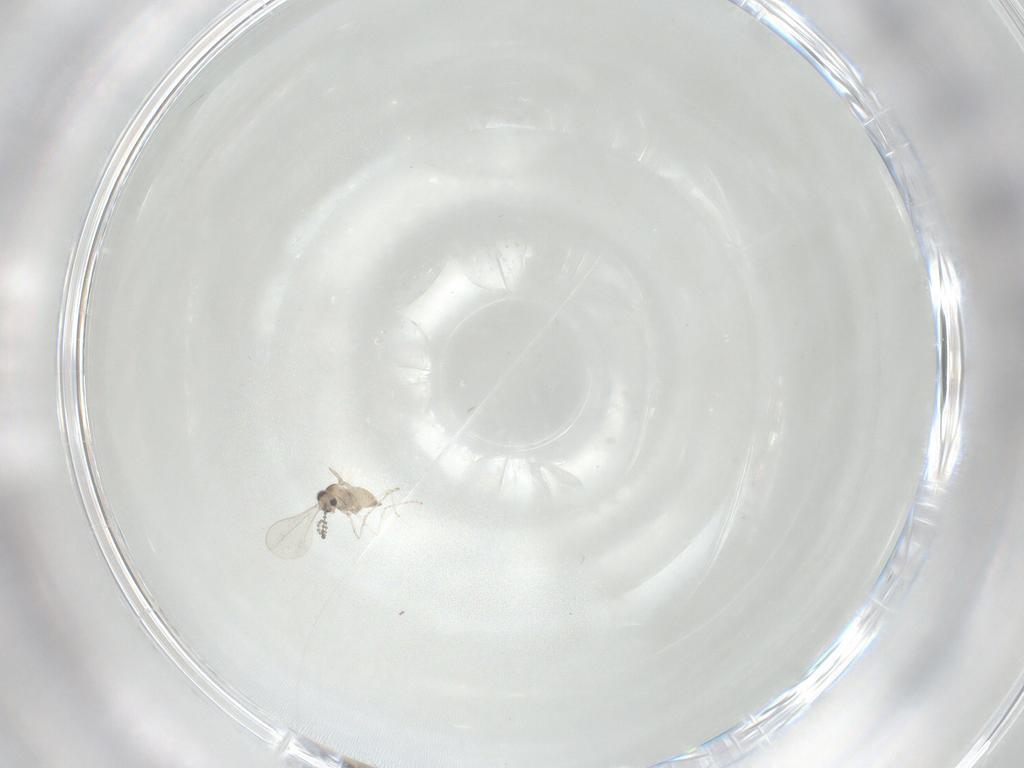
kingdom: Animalia
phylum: Arthropoda
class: Insecta
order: Diptera
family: Cecidomyiidae
